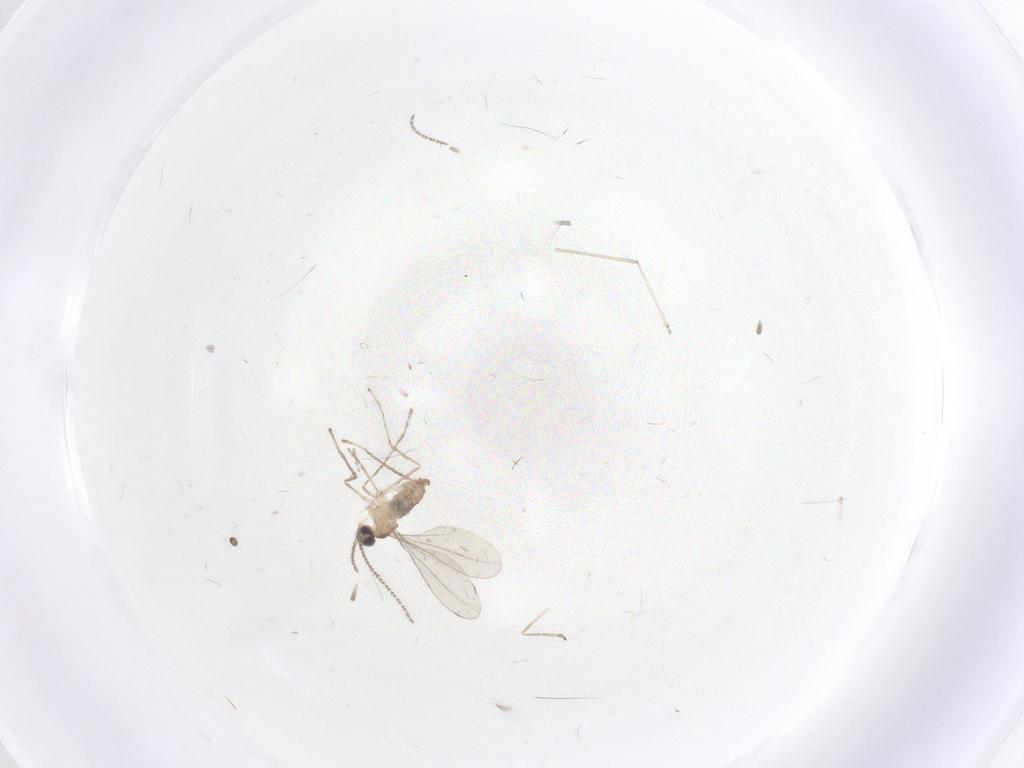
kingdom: Animalia
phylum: Arthropoda
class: Insecta
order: Diptera
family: Cecidomyiidae
